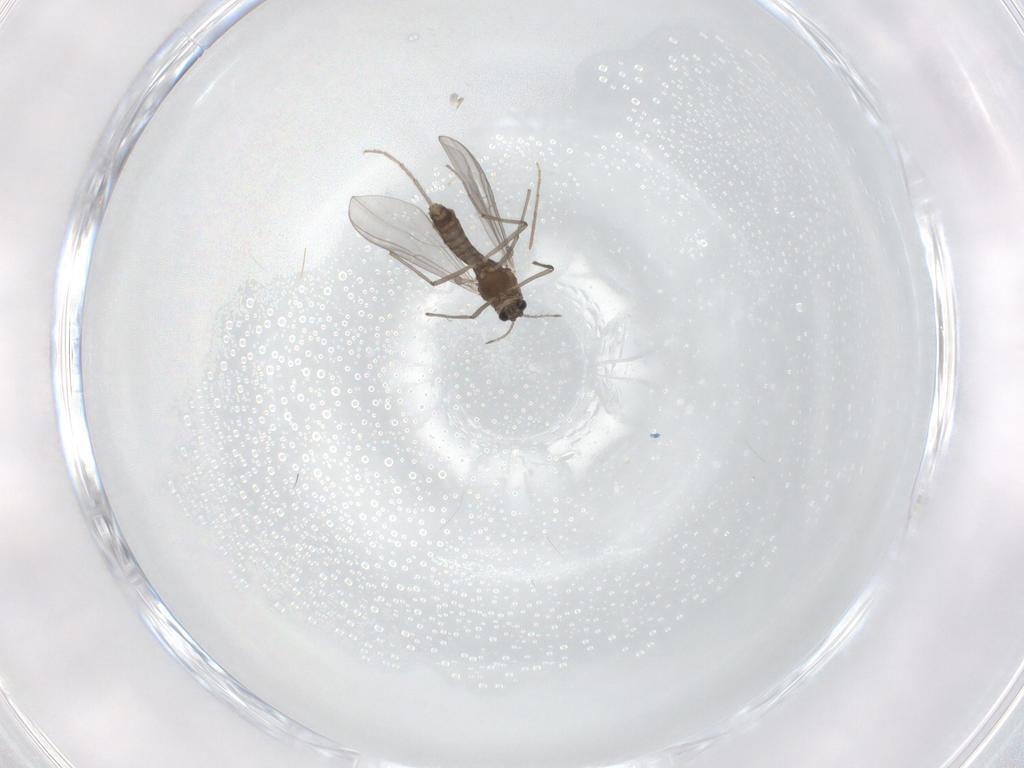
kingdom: Animalia
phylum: Arthropoda
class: Insecta
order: Diptera
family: Chironomidae
